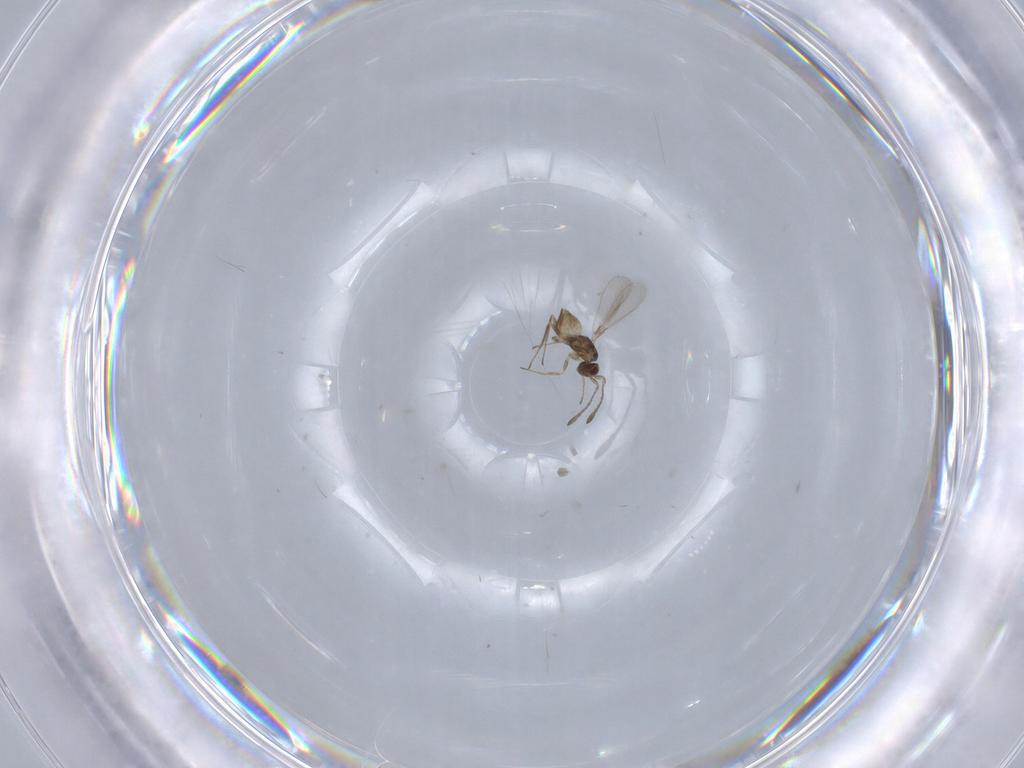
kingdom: Animalia
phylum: Arthropoda
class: Insecta
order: Hymenoptera
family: Mymaridae
